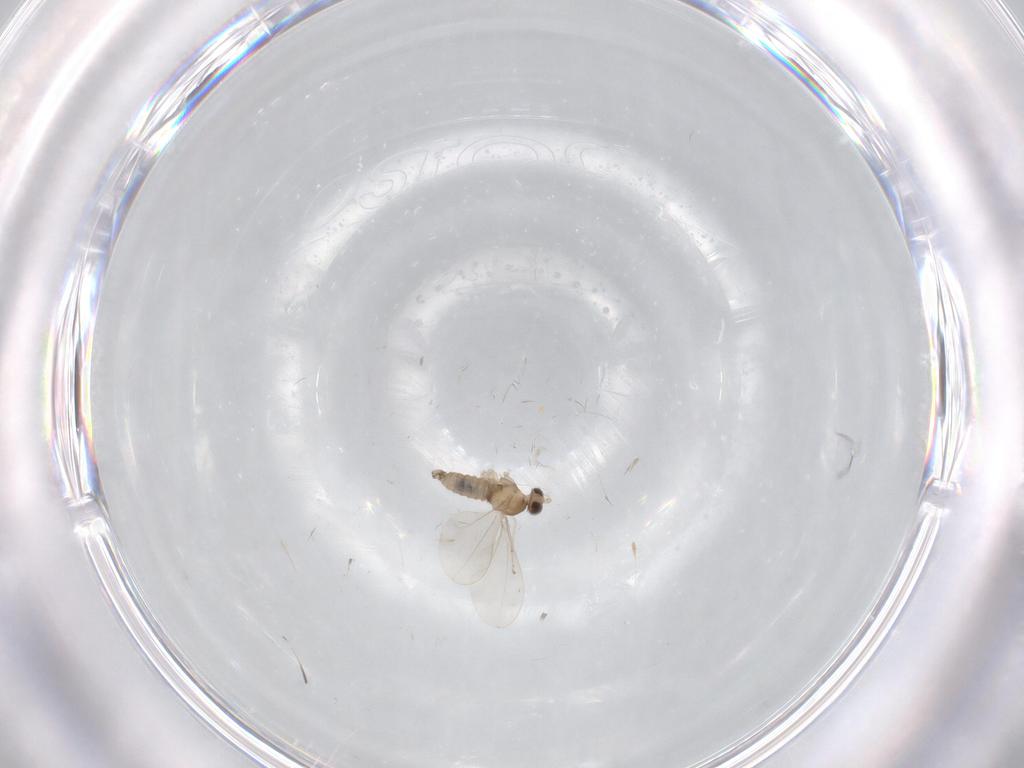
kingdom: Animalia
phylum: Arthropoda
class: Insecta
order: Diptera
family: Cecidomyiidae
